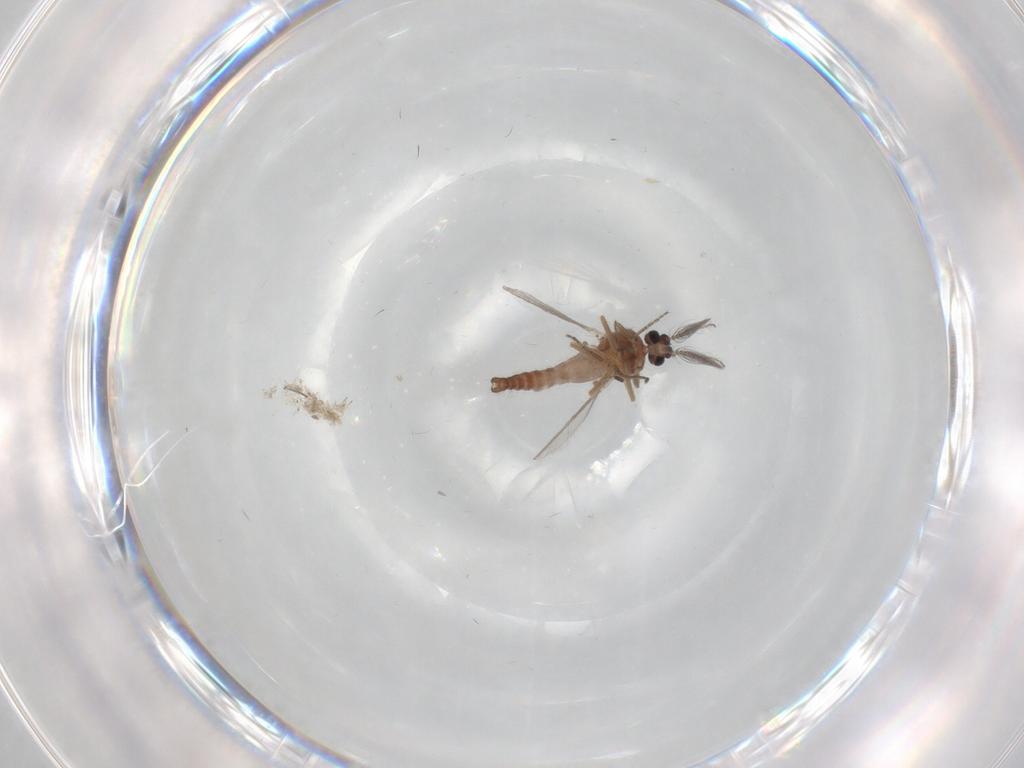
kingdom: Animalia
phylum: Arthropoda
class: Insecta
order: Diptera
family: Ceratopogonidae
